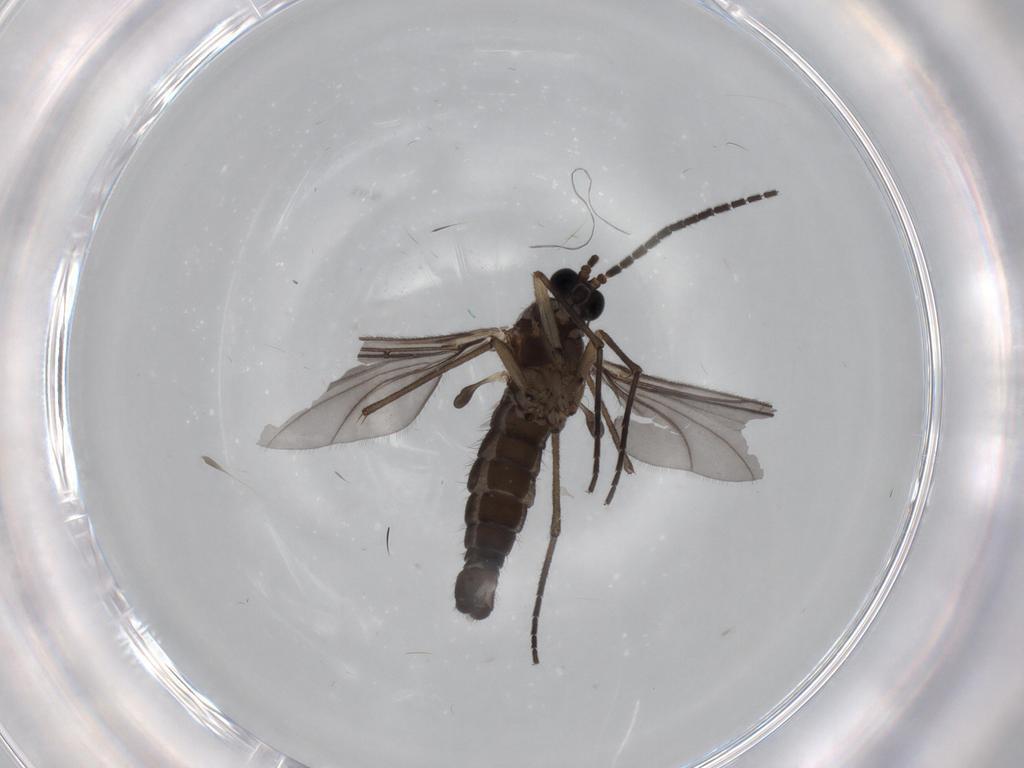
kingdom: Animalia
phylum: Arthropoda
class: Insecta
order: Diptera
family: Sciaridae
